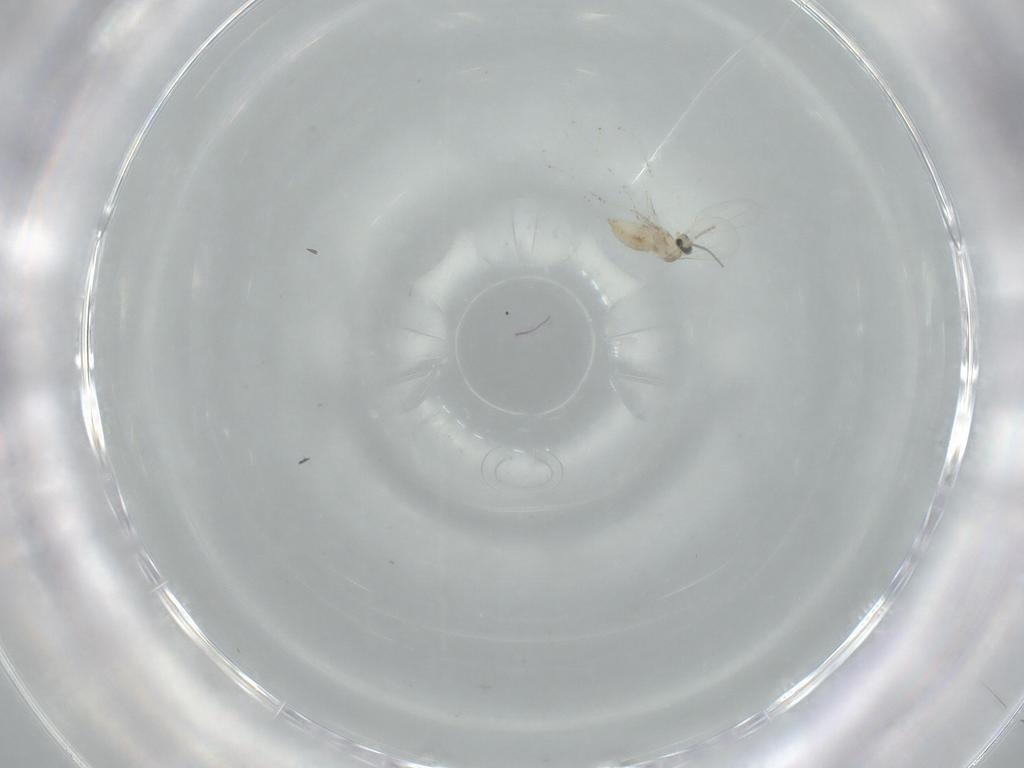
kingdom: Animalia
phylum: Arthropoda
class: Insecta
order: Diptera
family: Cecidomyiidae
